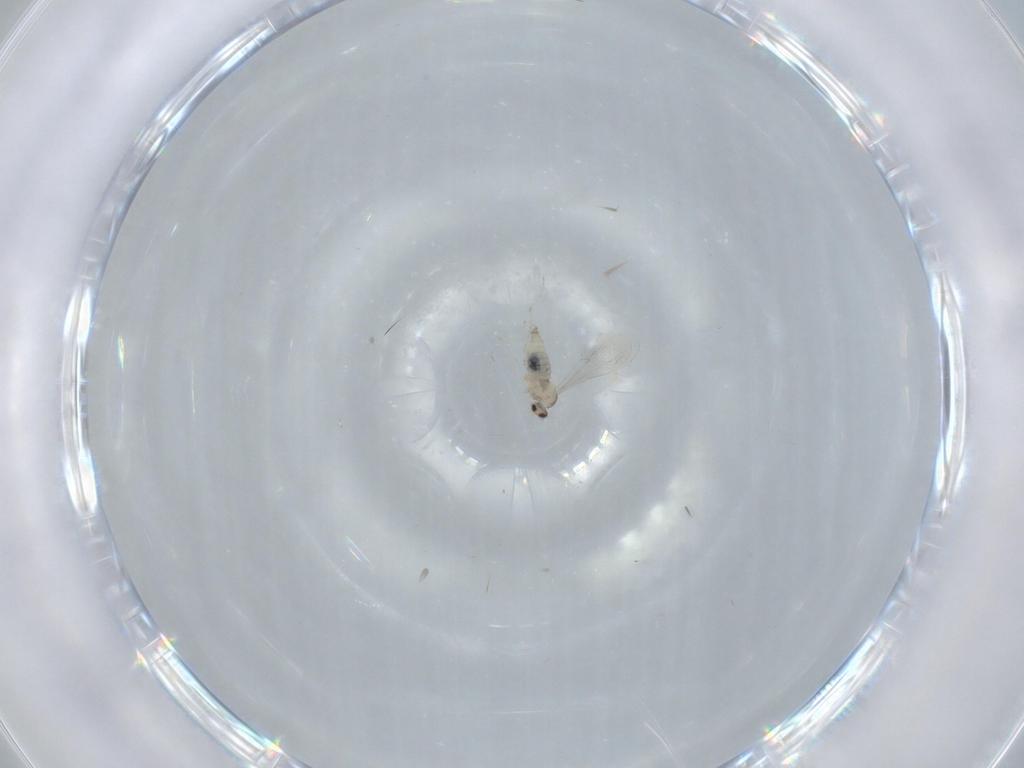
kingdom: Animalia
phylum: Arthropoda
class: Insecta
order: Diptera
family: Cecidomyiidae
